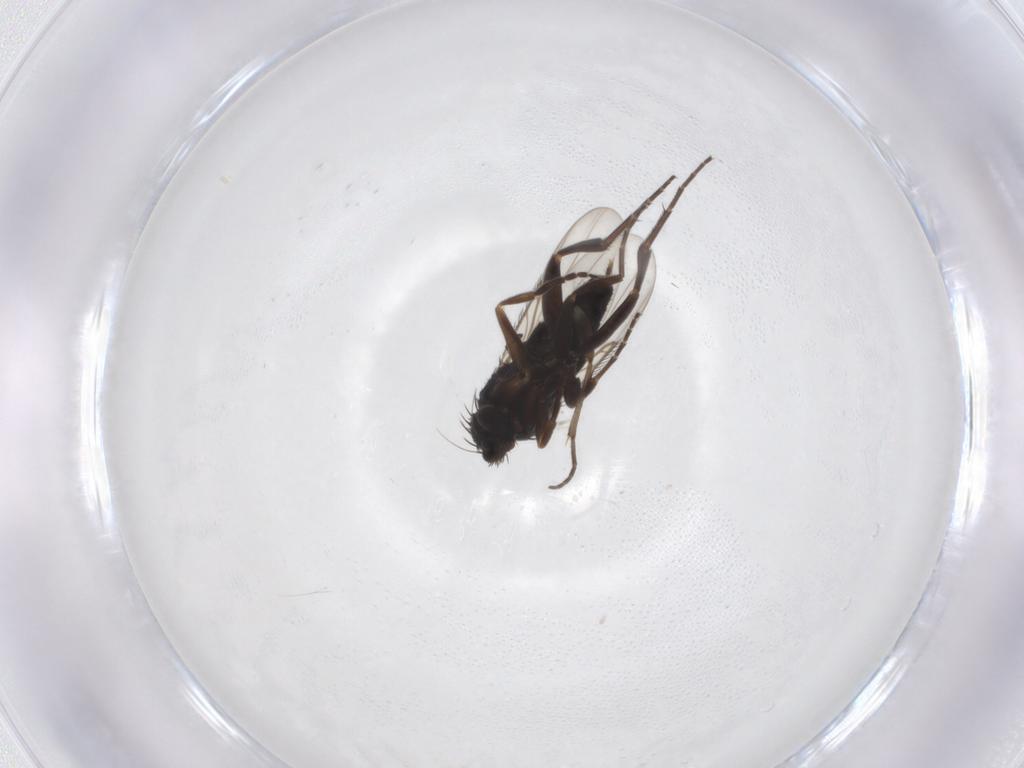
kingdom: Animalia
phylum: Arthropoda
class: Insecta
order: Diptera
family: Phoridae
